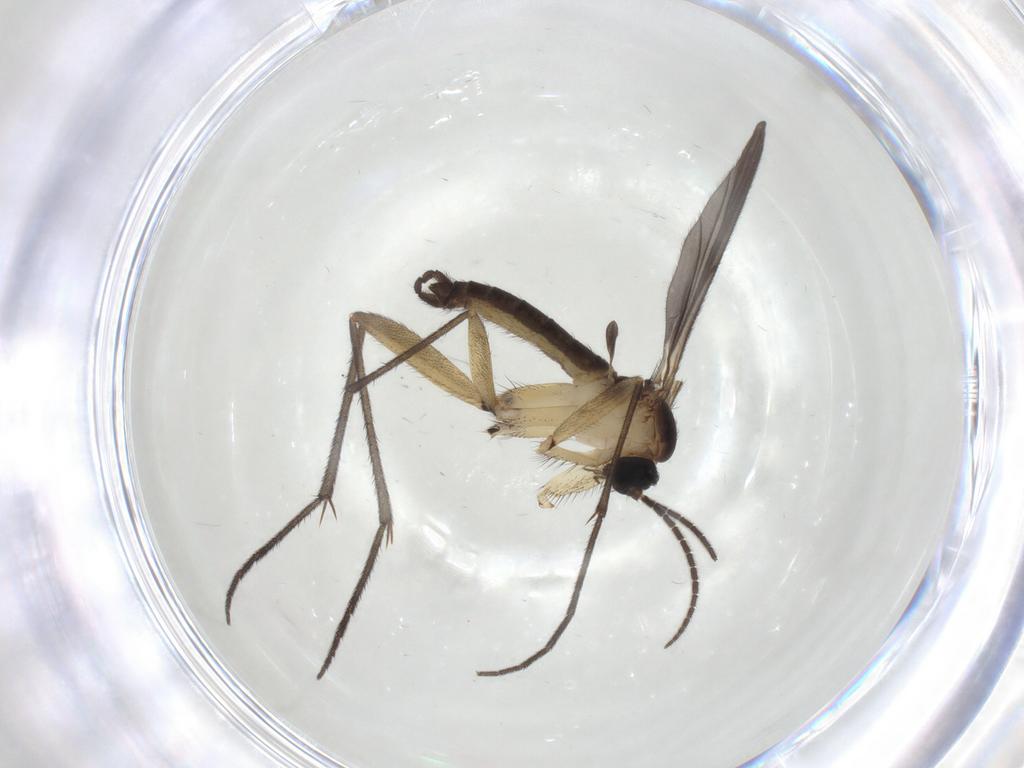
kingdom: Animalia
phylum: Arthropoda
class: Insecta
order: Diptera
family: Sciaridae
